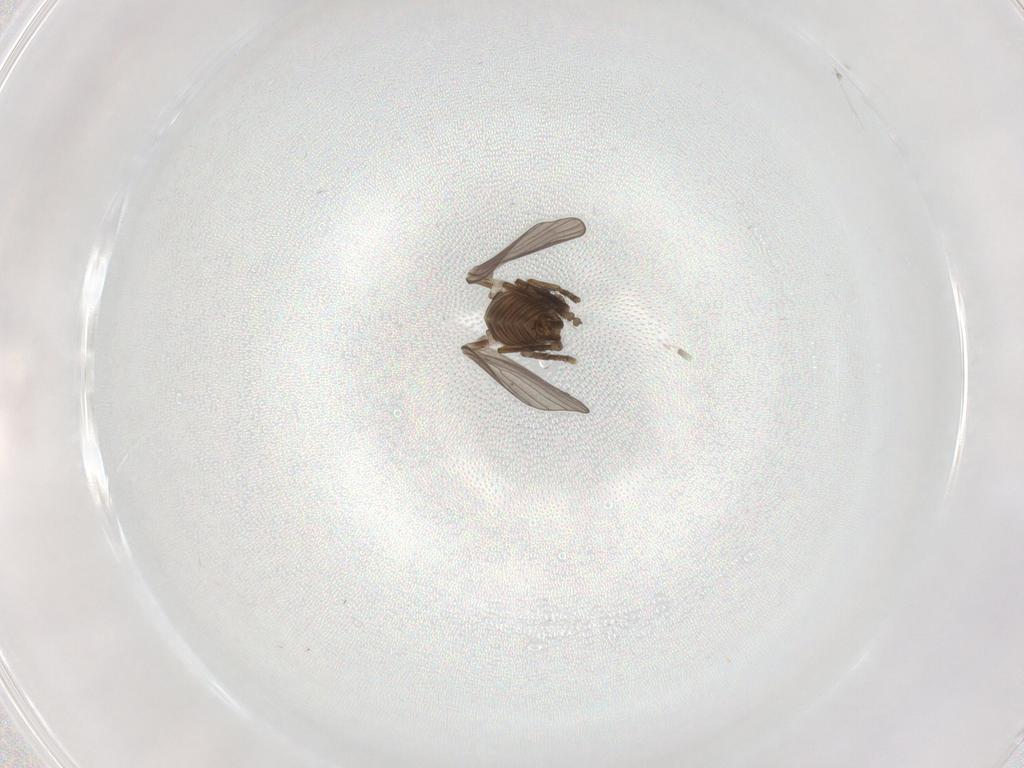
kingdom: Animalia
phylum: Arthropoda
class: Insecta
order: Diptera
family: Psychodidae
